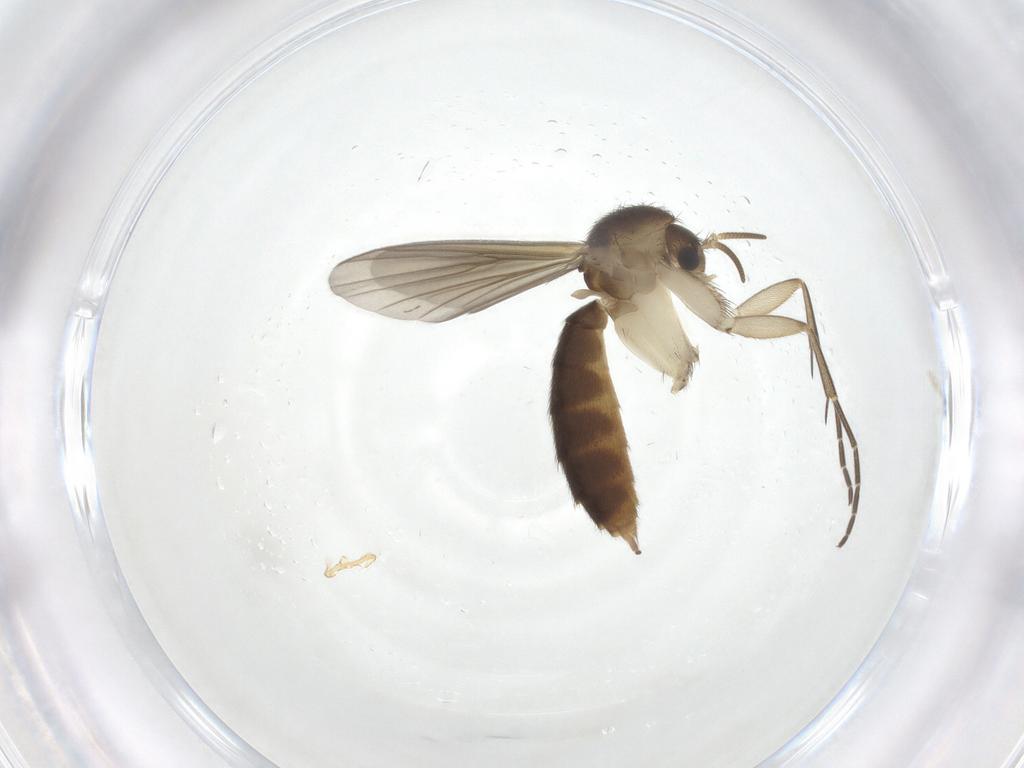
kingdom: Animalia
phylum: Arthropoda
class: Insecta
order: Diptera
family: Mycetophilidae
